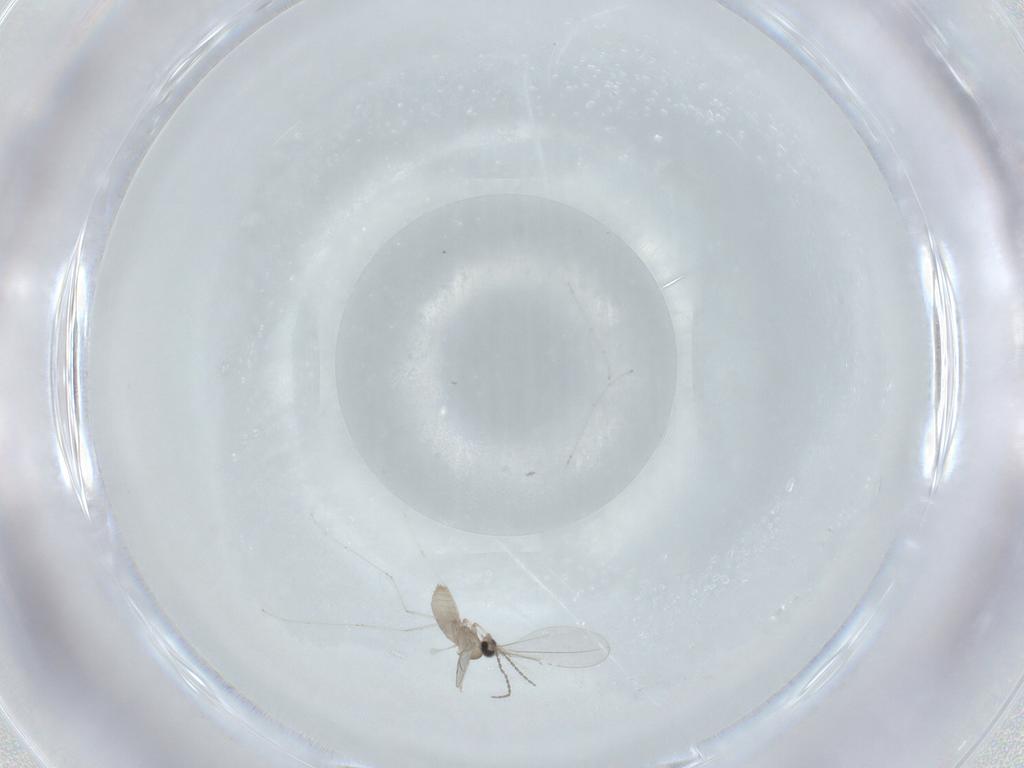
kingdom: Animalia
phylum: Arthropoda
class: Insecta
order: Diptera
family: Cecidomyiidae
